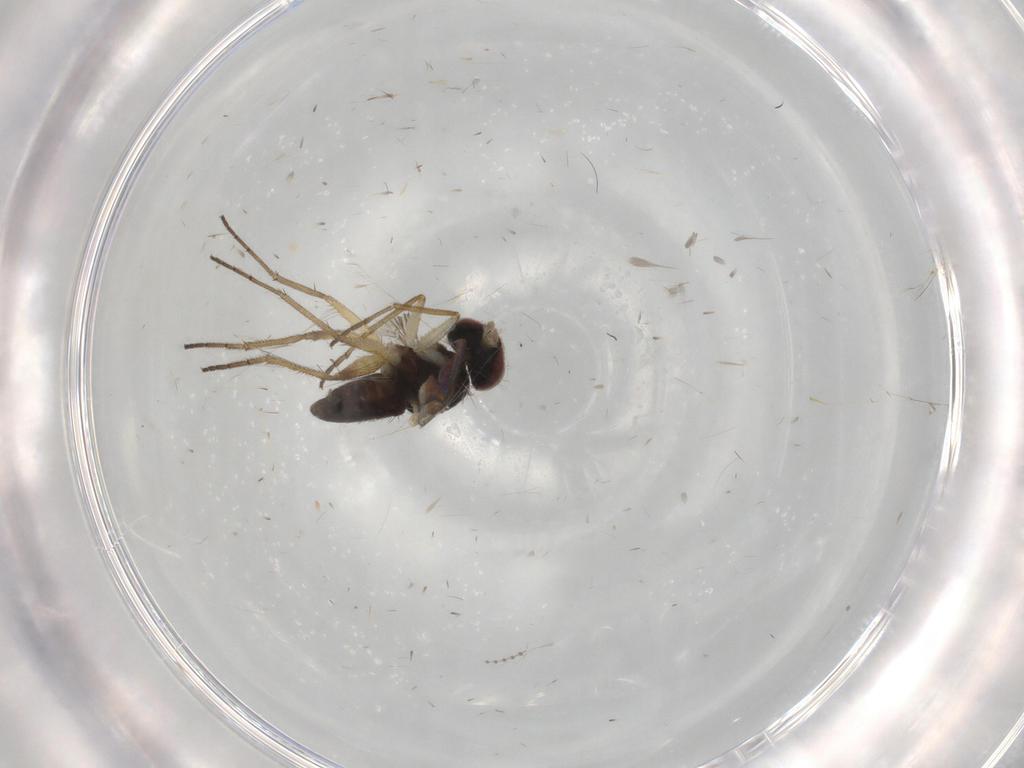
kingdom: Animalia
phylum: Arthropoda
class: Insecta
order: Diptera
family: Dolichopodidae
